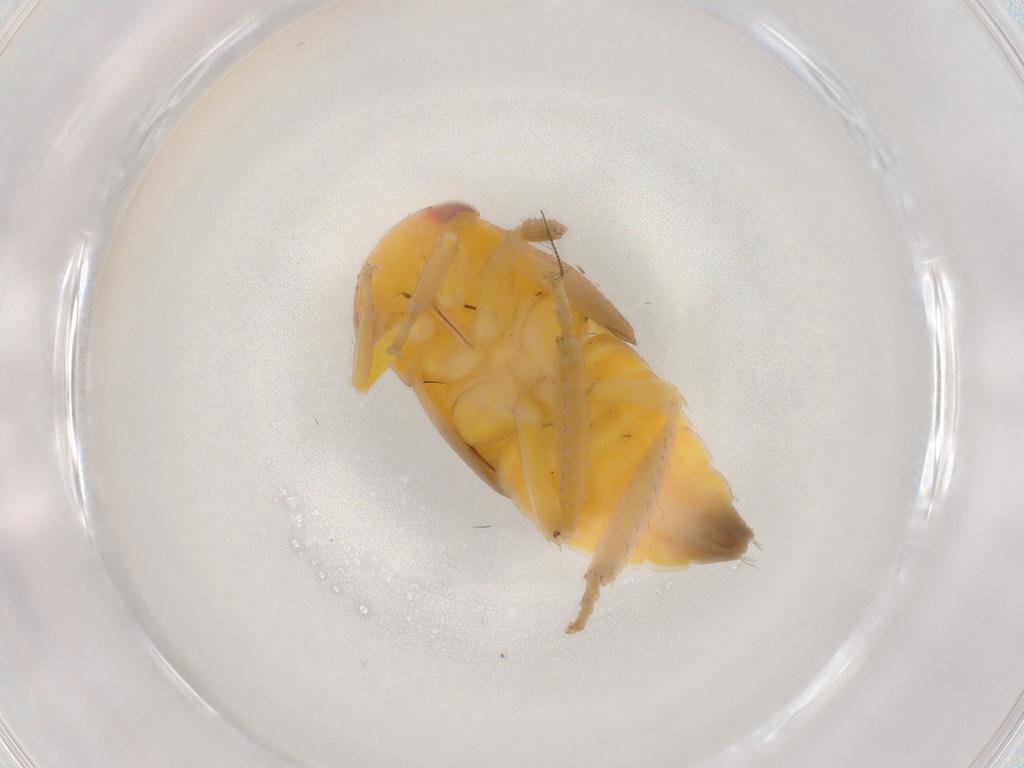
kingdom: Animalia
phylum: Arthropoda
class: Insecta
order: Hemiptera
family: Cicadellidae
